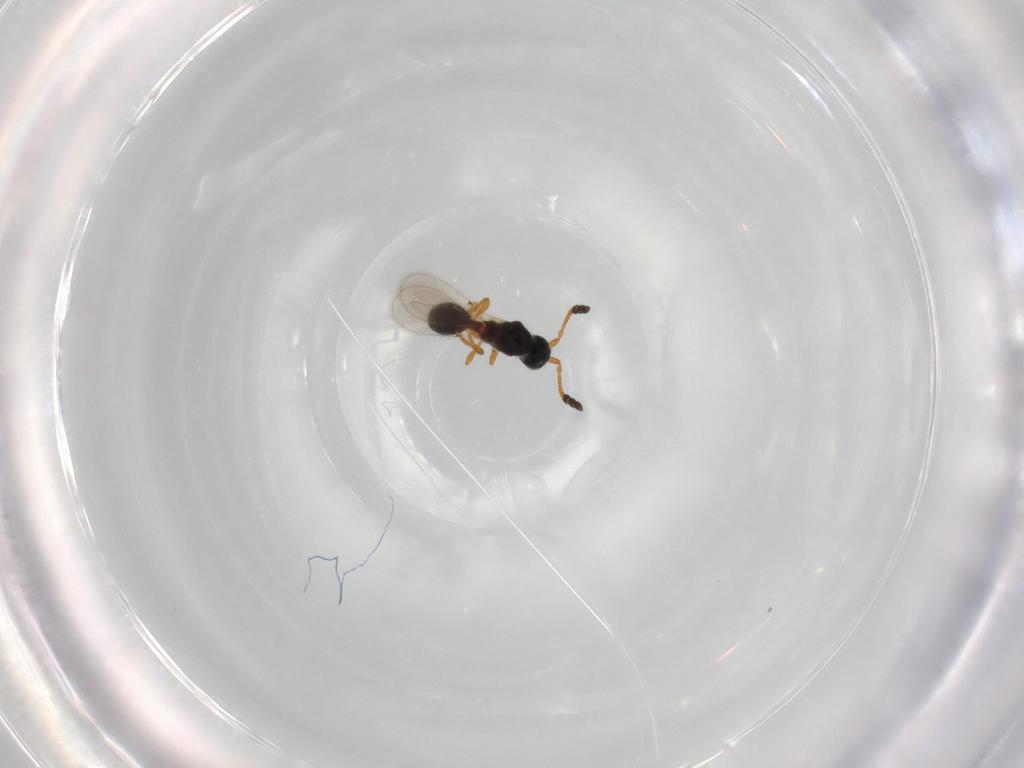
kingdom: Animalia
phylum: Arthropoda
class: Insecta
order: Hymenoptera
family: Diapriidae
